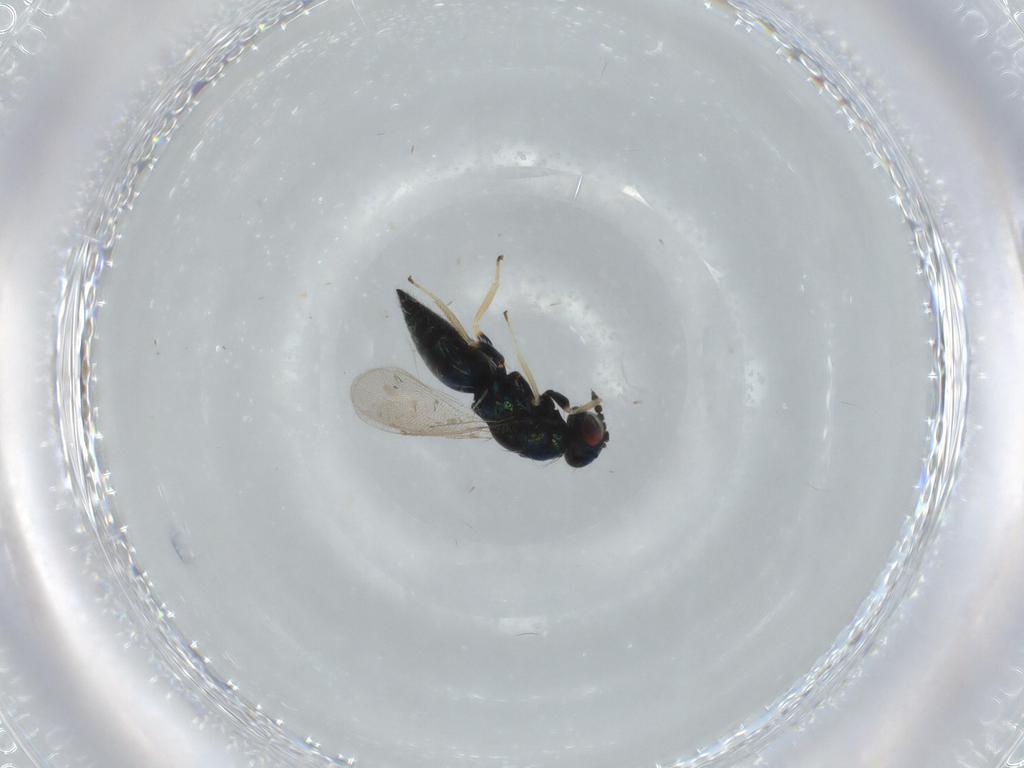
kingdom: Animalia
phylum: Arthropoda
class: Insecta
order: Hymenoptera
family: Eulophidae
